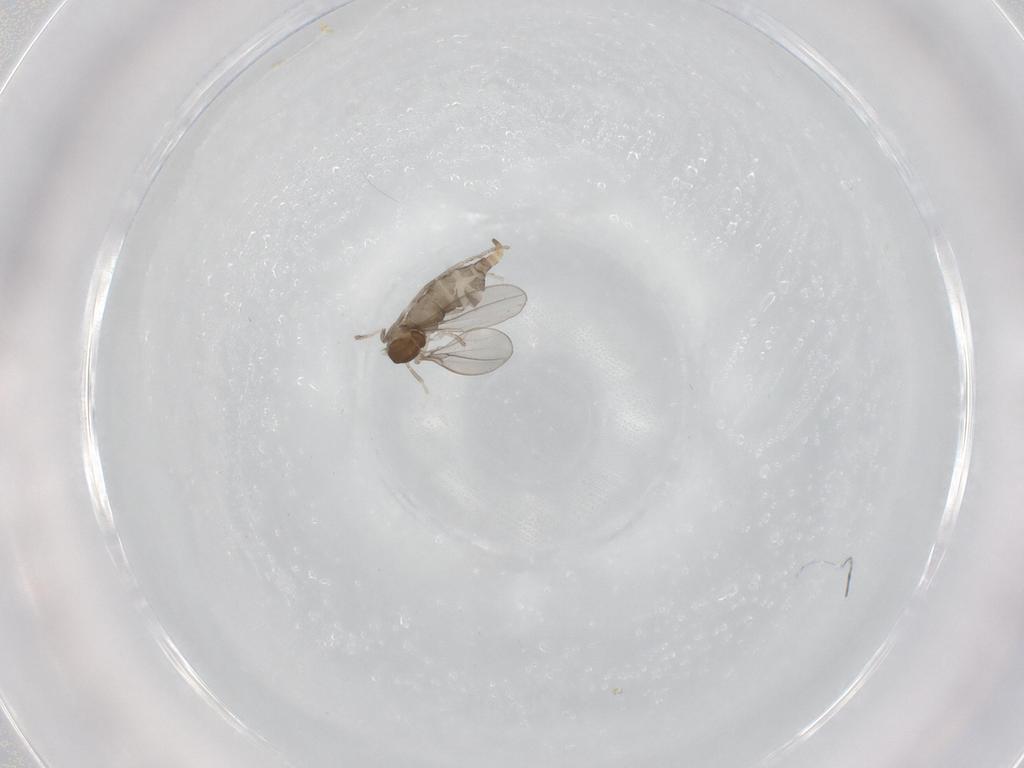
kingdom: Animalia
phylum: Arthropoda
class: Insecta
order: Diptera
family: Cecidomyiidae
